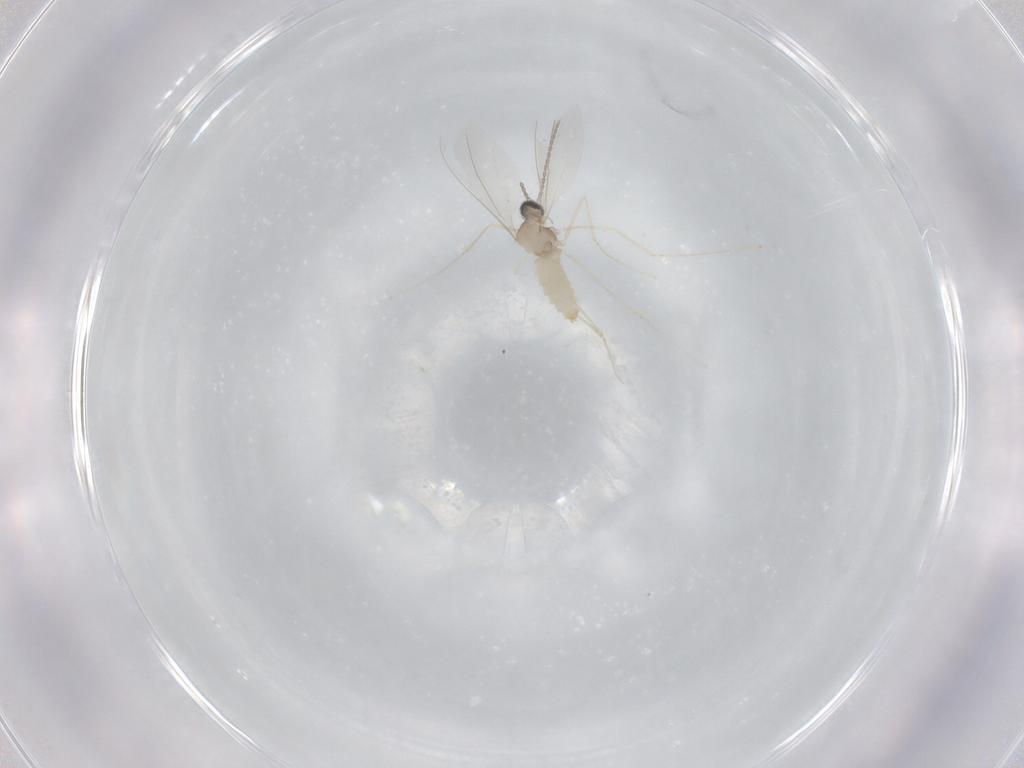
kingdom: Animalia
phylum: Arthropoda
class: Insecta
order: Diptera
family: Cecidomyiidae
